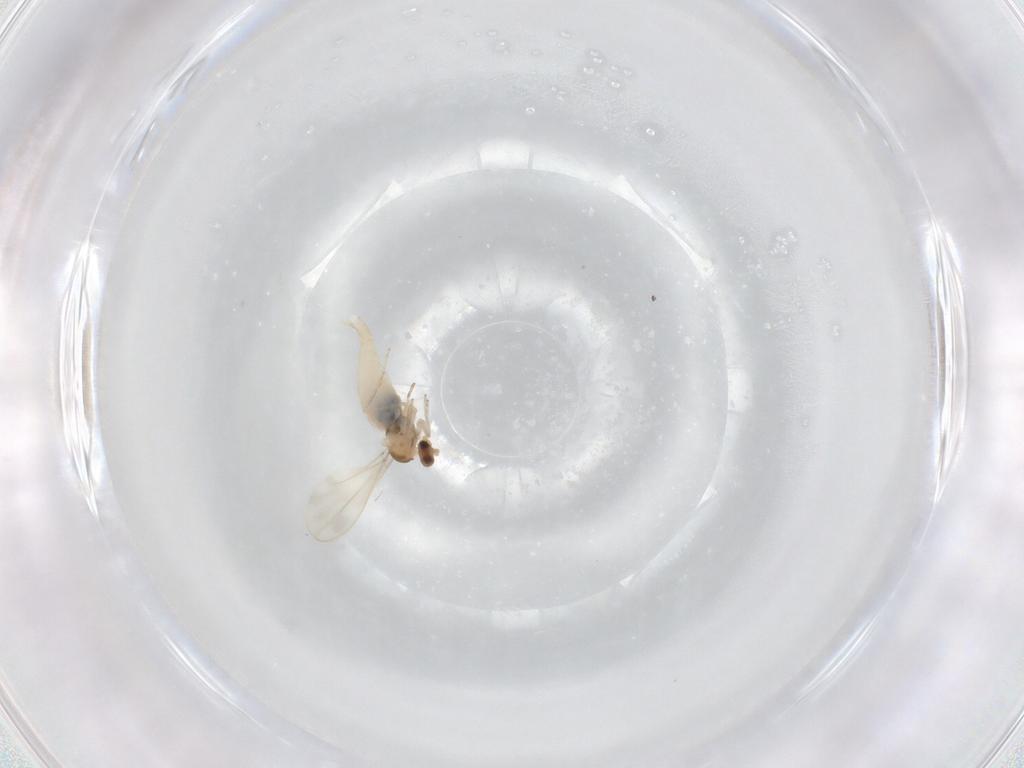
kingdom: Animalia
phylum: Arthropoda
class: Insecta
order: Diptera
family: Cecidomyiidae
